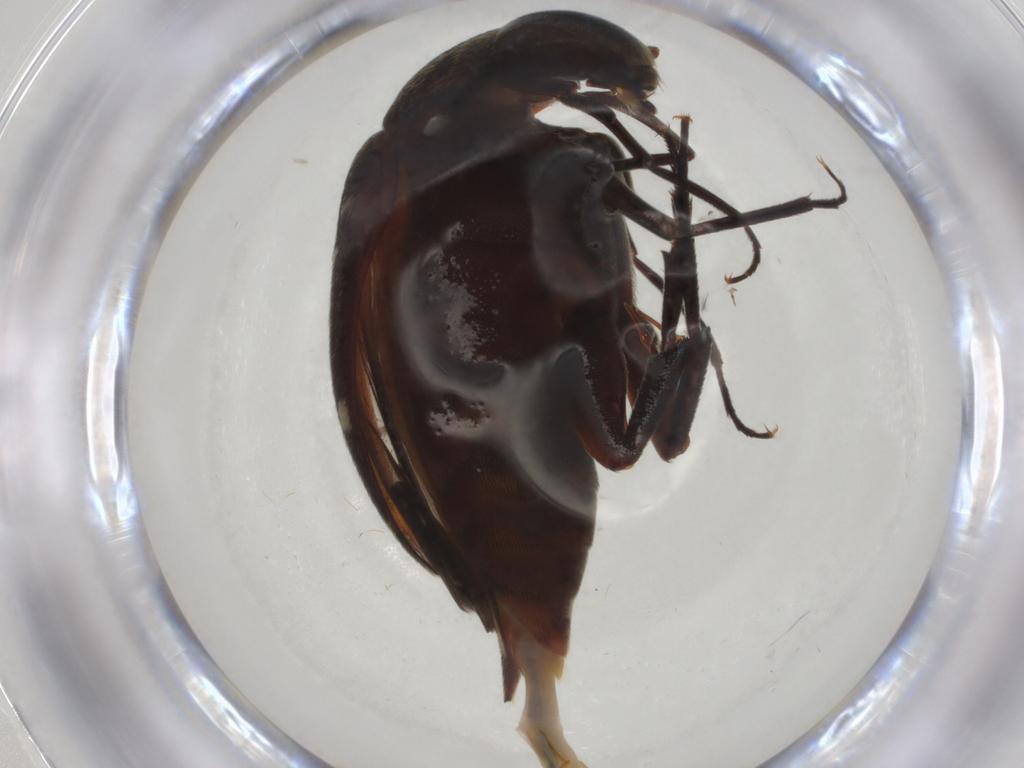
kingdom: Animalia
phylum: Arthropoda
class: Insecta
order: Coleoptera
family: Mordellidae
